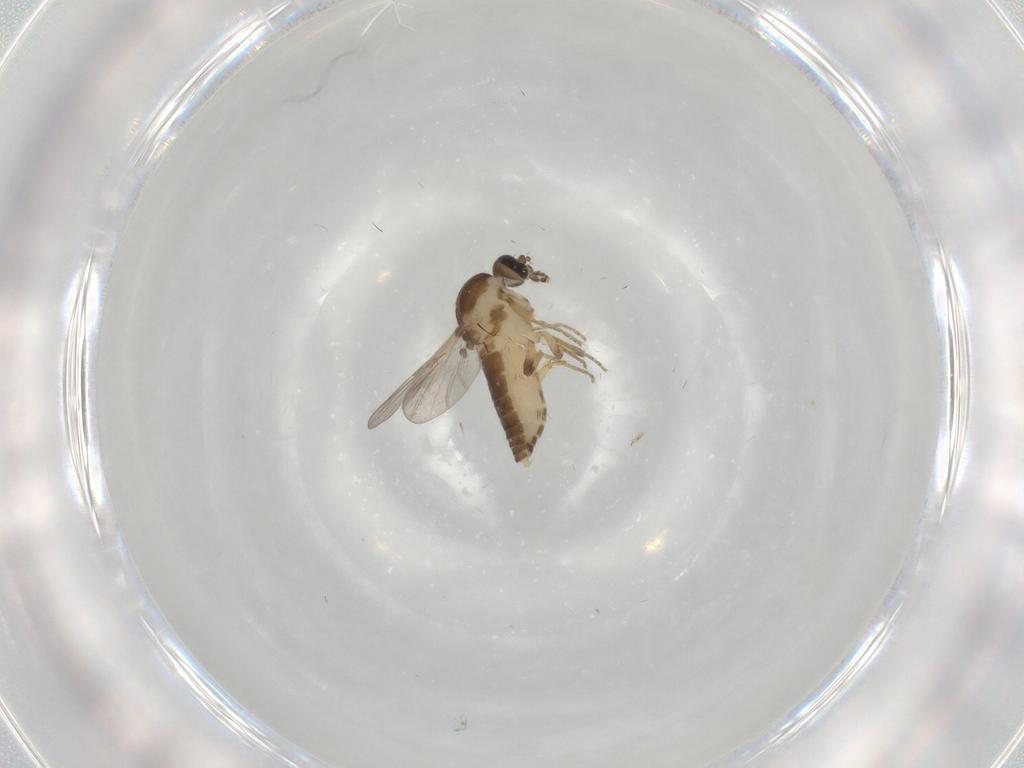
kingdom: Animalia
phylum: Arthropoda
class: Insecta
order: Diptera
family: Ceratopogonidae
